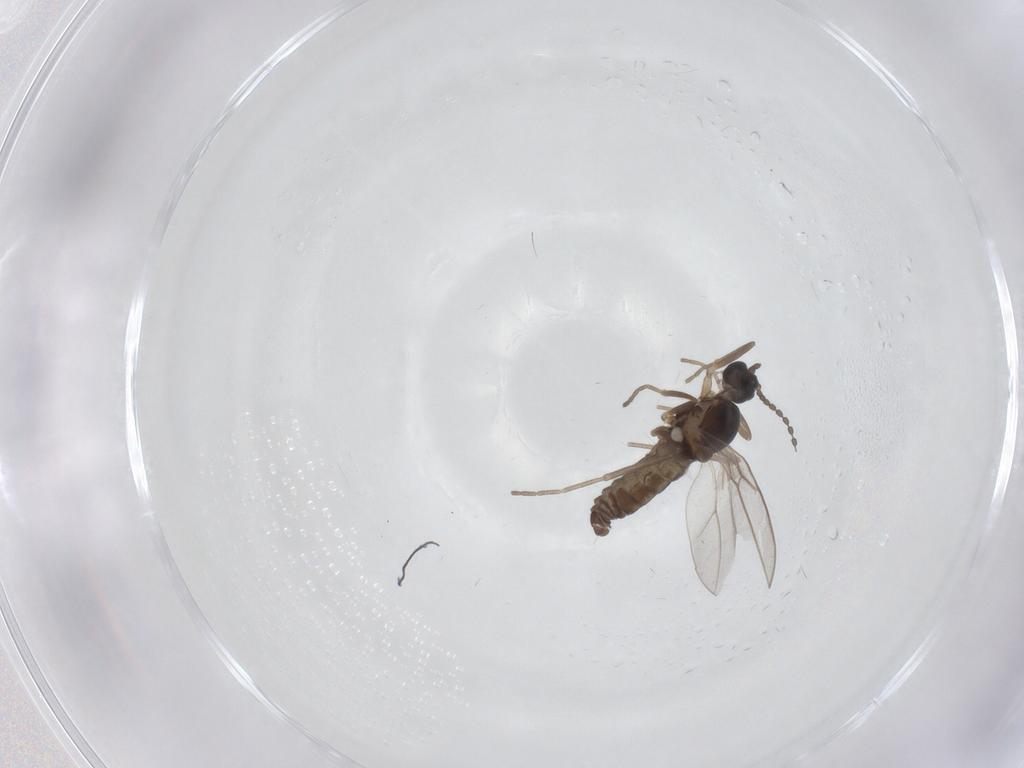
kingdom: Animalia
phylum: Arthropoda
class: Insecta
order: Diptera
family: Cecidomyiidae
